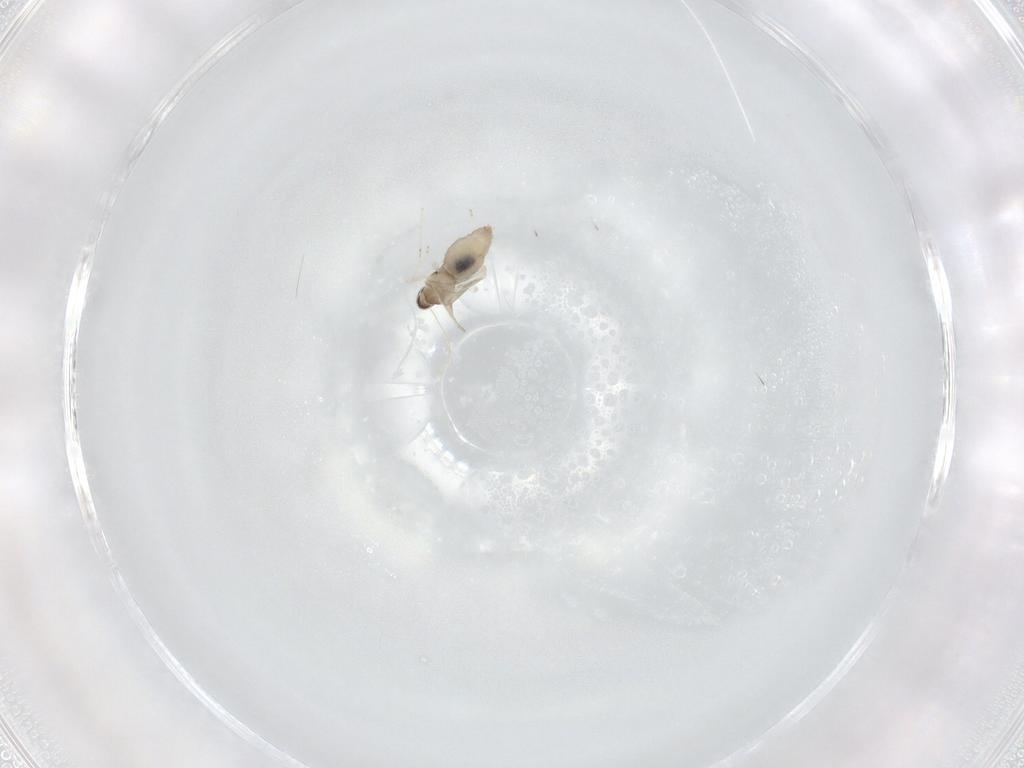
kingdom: Animalia
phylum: Arthropoda
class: Insecta
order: Diptera
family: Cecidomyiidae
